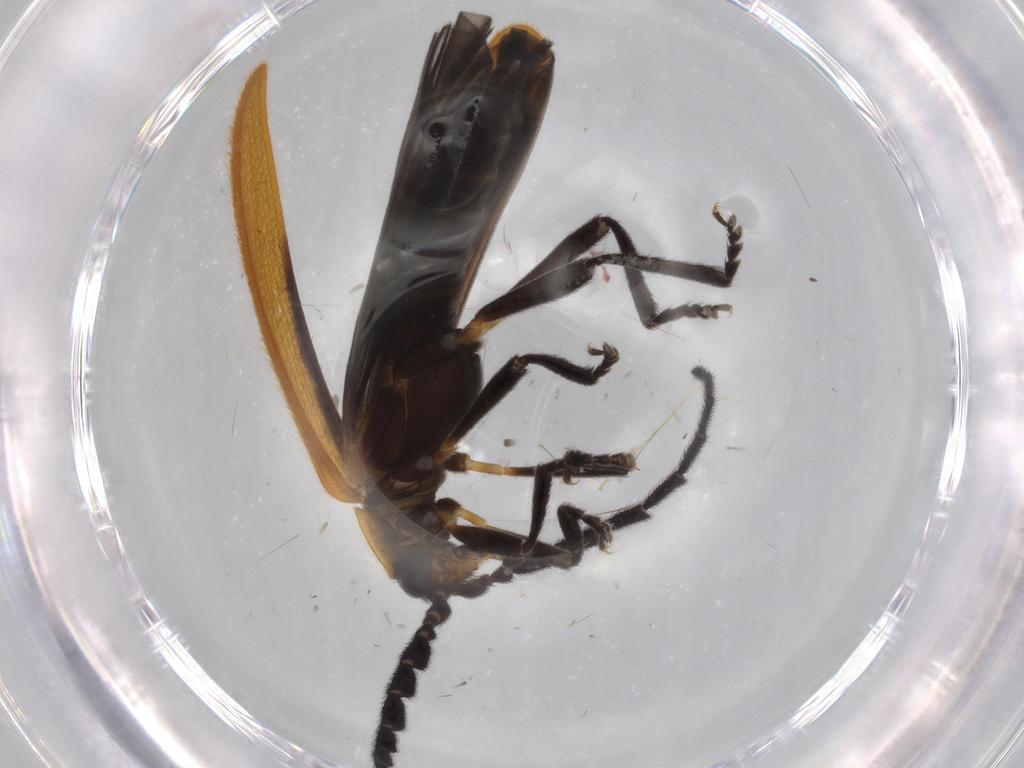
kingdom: Animalia
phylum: Arthropoda
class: Insecta
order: Coleoptera
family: Lycidae
